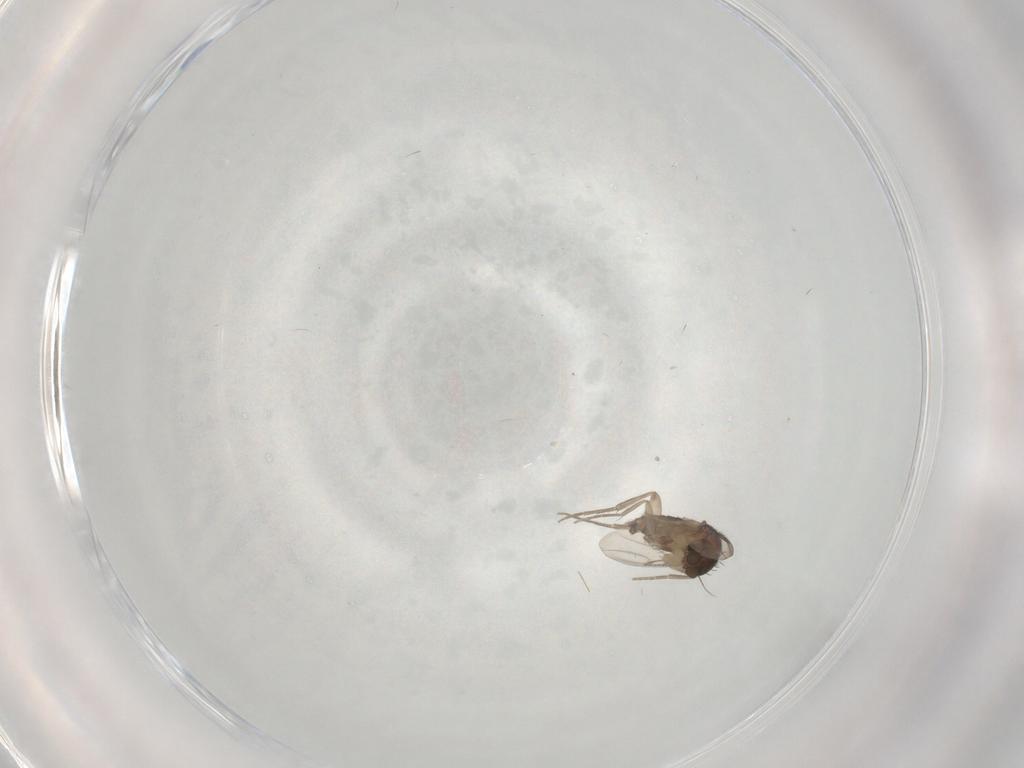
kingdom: Animalia
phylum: Arthropoda
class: Insecta
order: Diptera
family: Phoridae
